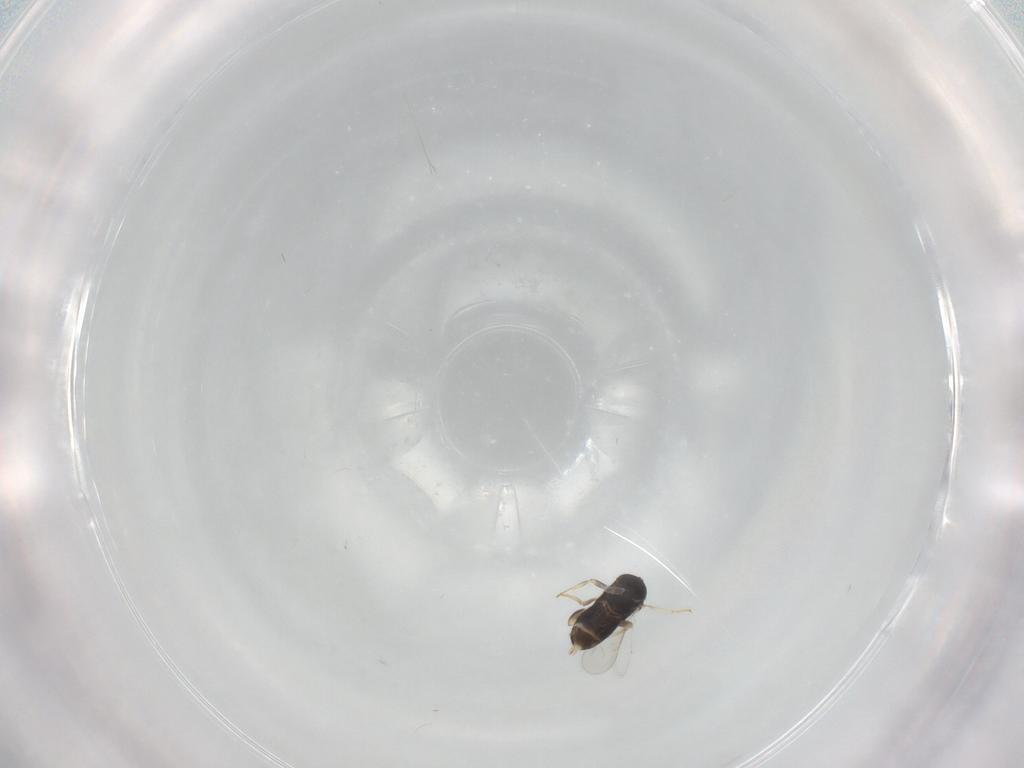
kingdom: Animalia
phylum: Arthropoda
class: Insecta
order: Hymenoptera
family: Aphelinidae
